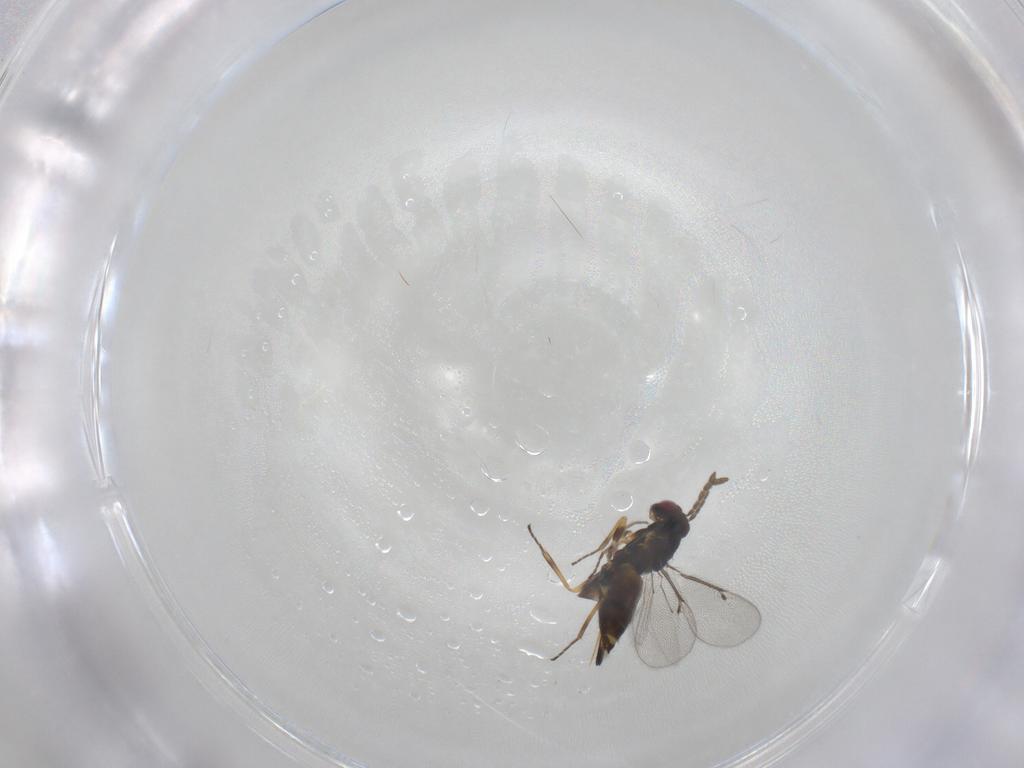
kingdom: Animalia
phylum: Arthropoda
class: Insecta
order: Hymenoptera
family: Eulophidae
